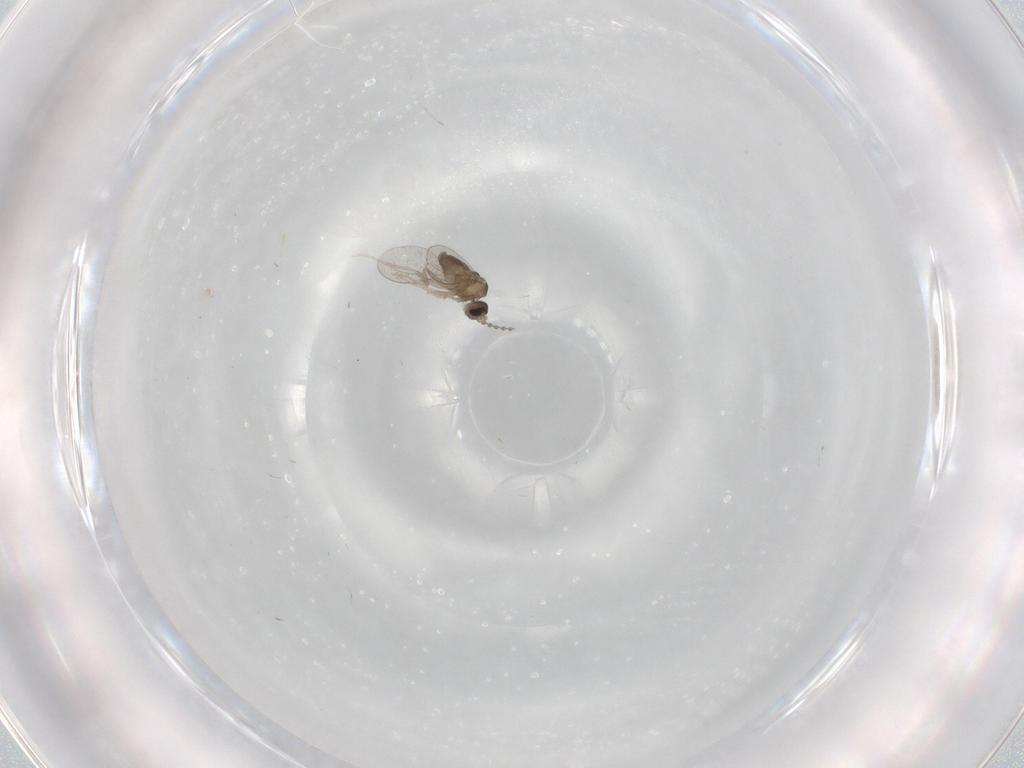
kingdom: Animalia
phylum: Arthropoda
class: Insecta
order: Diptera
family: Cecidomyiidae
